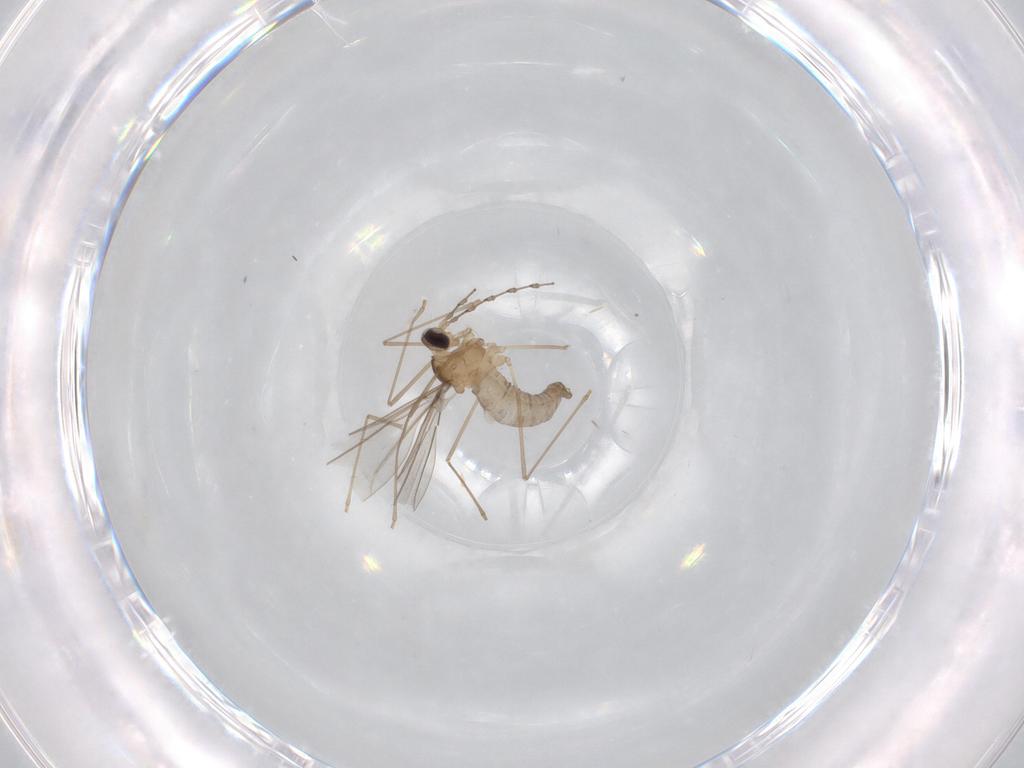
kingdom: Animalia
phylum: Arthropoda
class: Insecta
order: Diptera
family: Cecidomyiidae
